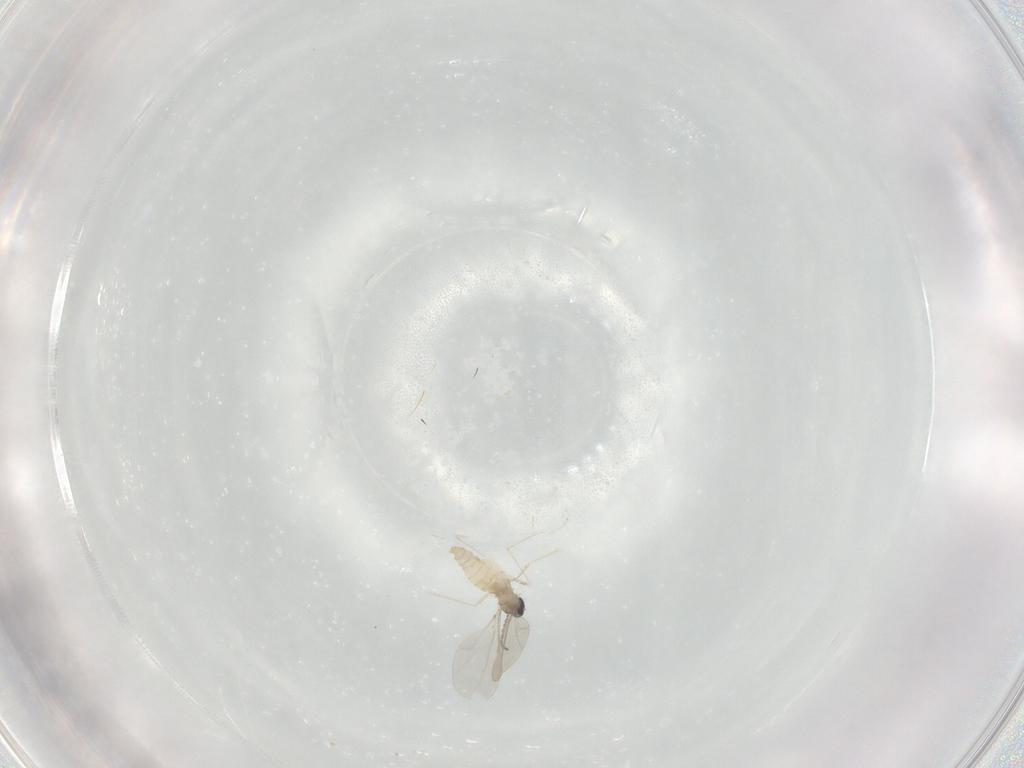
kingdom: Animalia
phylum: Arthropoda
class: Insecta
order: Diptera
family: Cecidomyiidae
